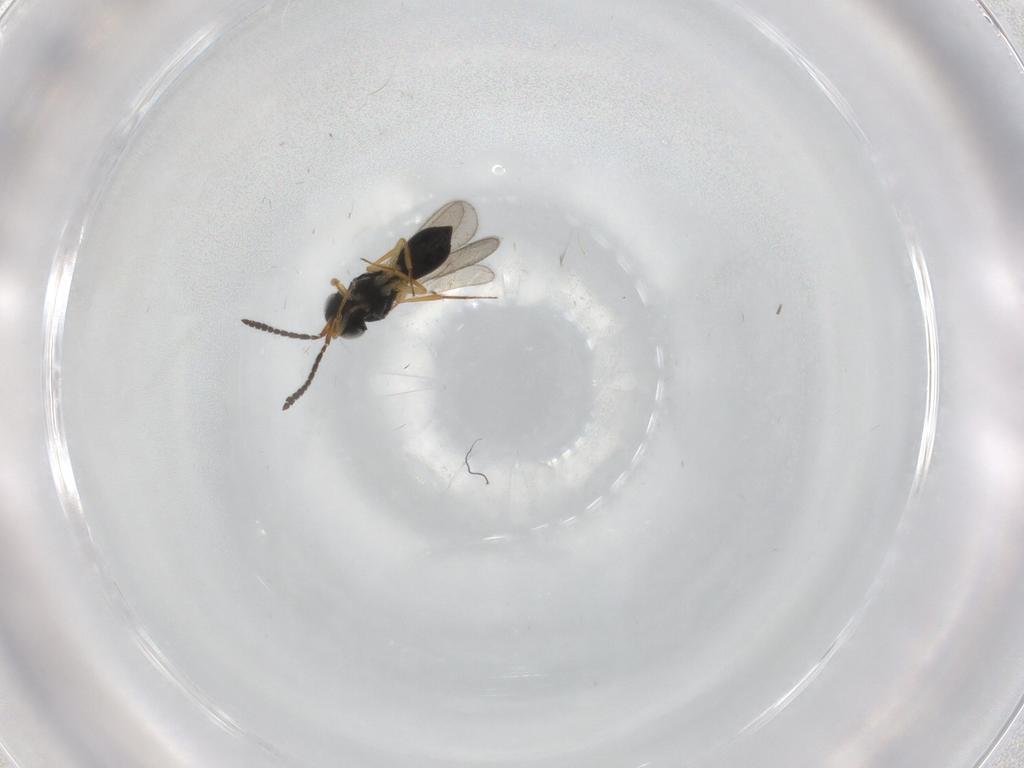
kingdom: Animalia
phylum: Arthropoda
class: Insecta
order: Hymenoptera
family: Scelionidae
